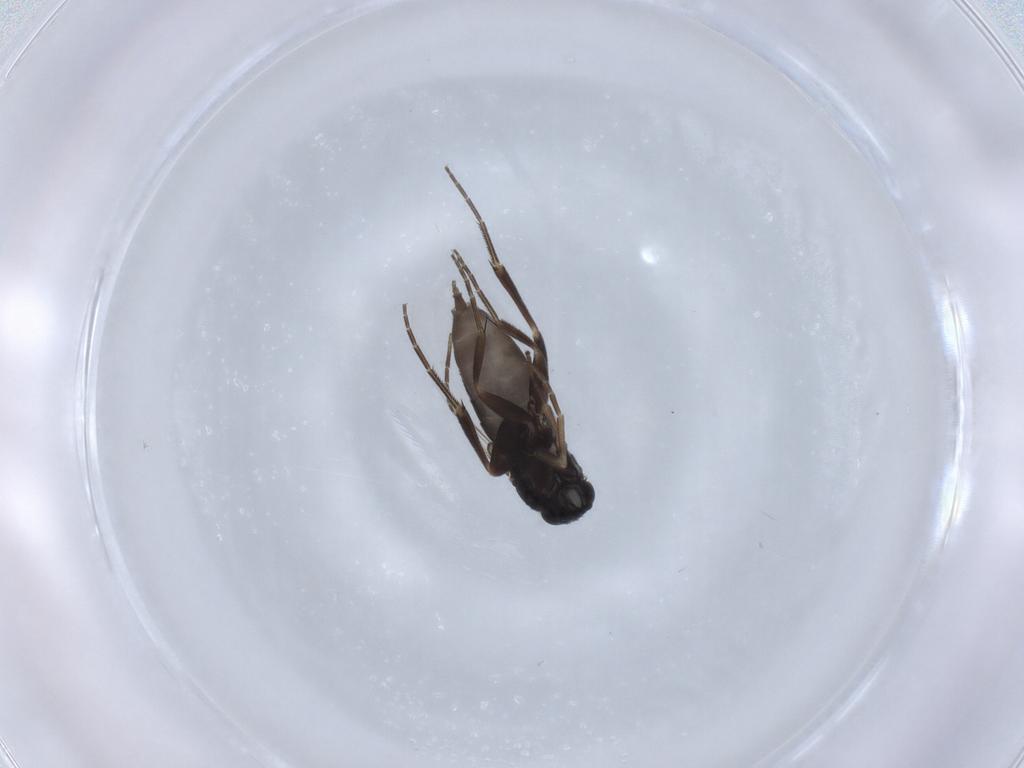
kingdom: Animalia
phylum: Arthropoda
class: Insecta
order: Diptera
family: Phoridae
